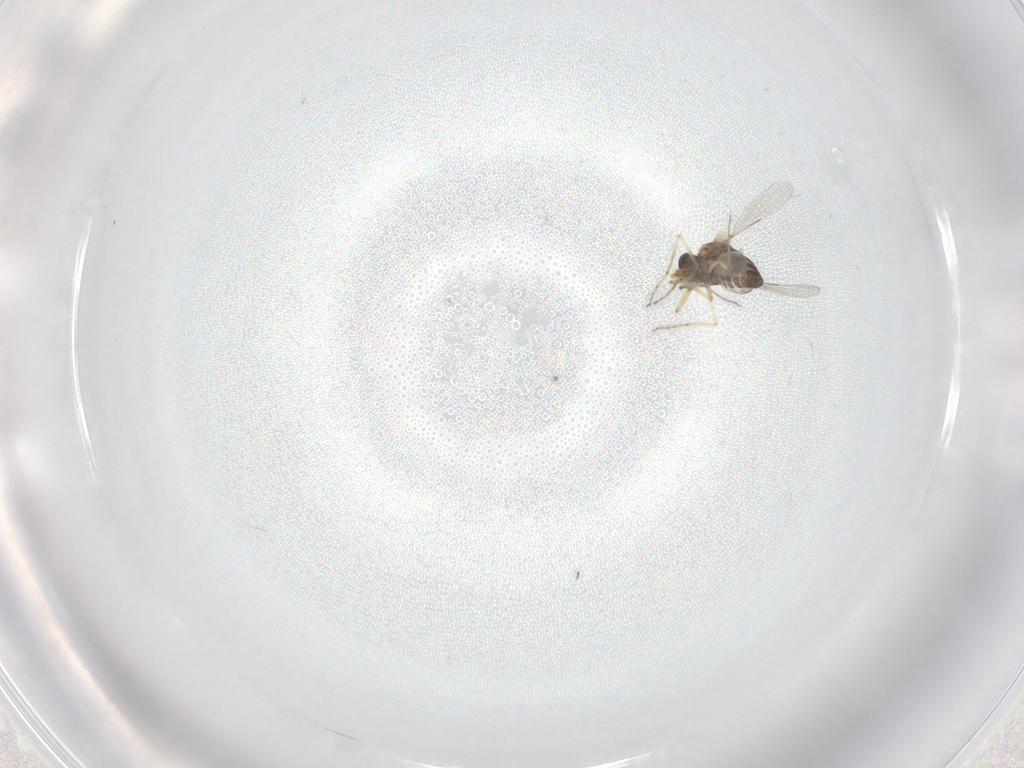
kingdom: Animalia
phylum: Arthropoda
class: Insecta
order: Diptera
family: Ceratopogonidae
